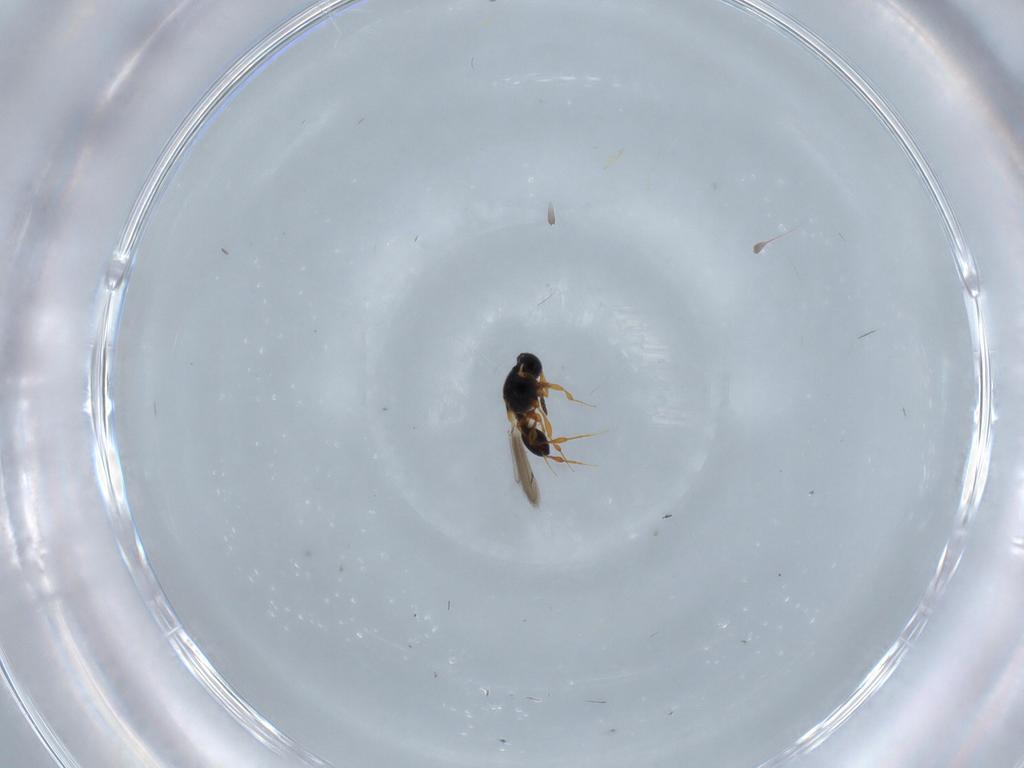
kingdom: Animalia
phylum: Arthropoda
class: Insecta
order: Hymenoptera
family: Platygastridae
